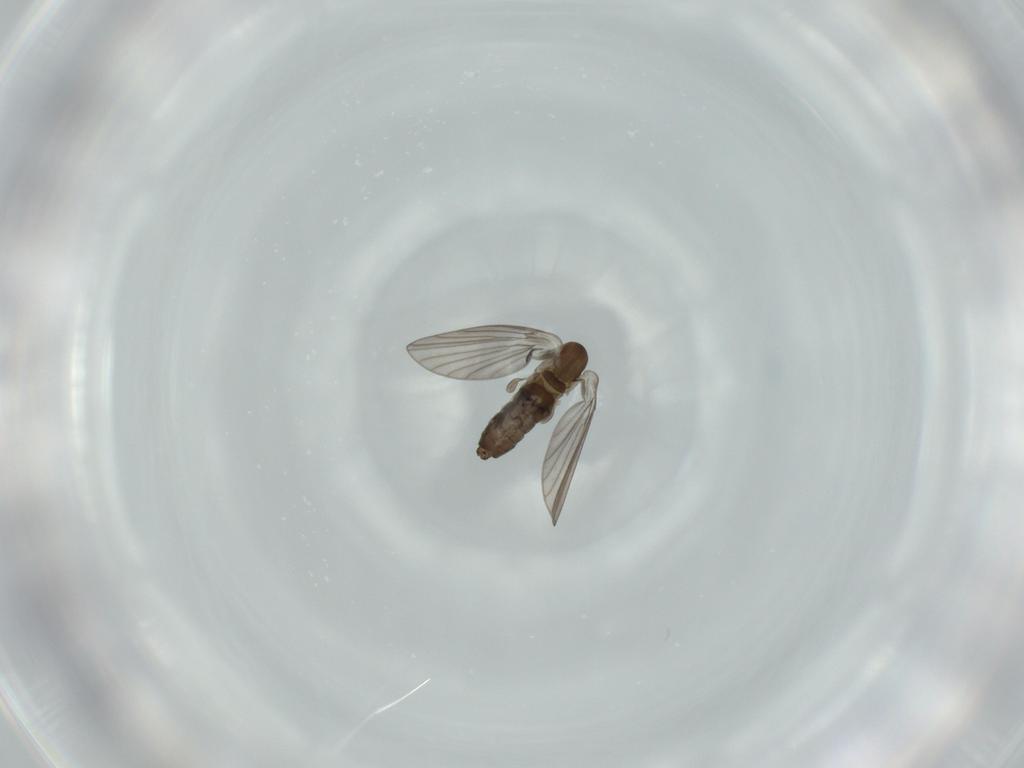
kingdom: Animalia
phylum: Arthropoda
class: Insecta
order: Diptera
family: Psychodidae
